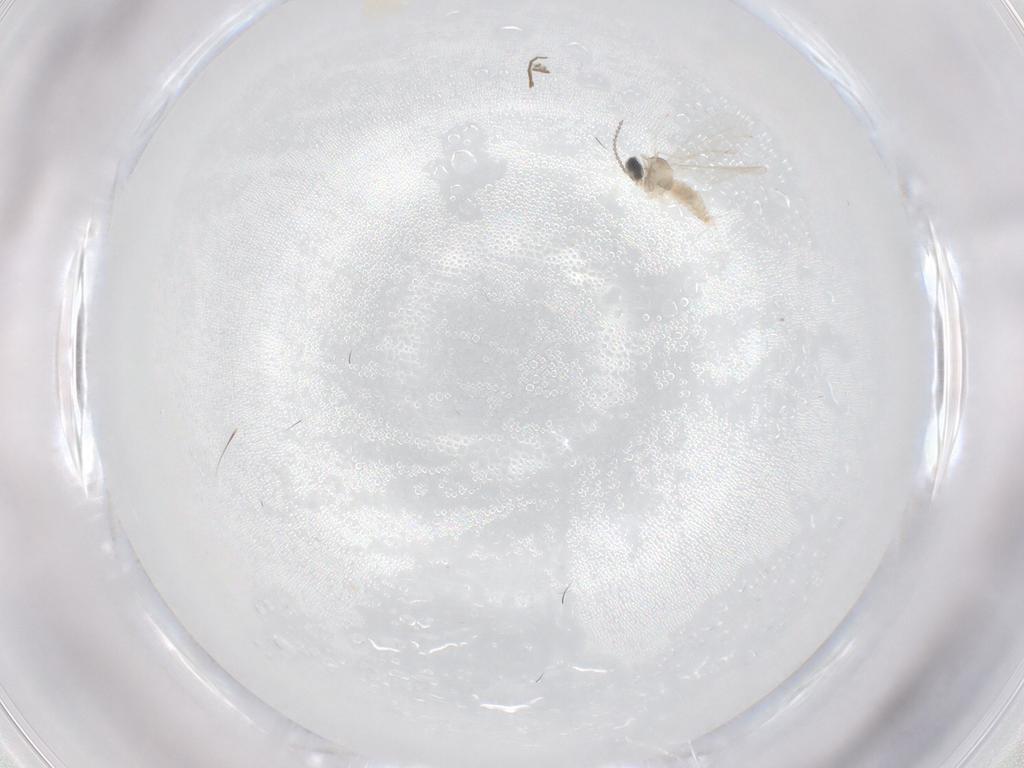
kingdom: Animalia
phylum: Arthropoda
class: Insecta
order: Diptera
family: Cecidomyiidae
